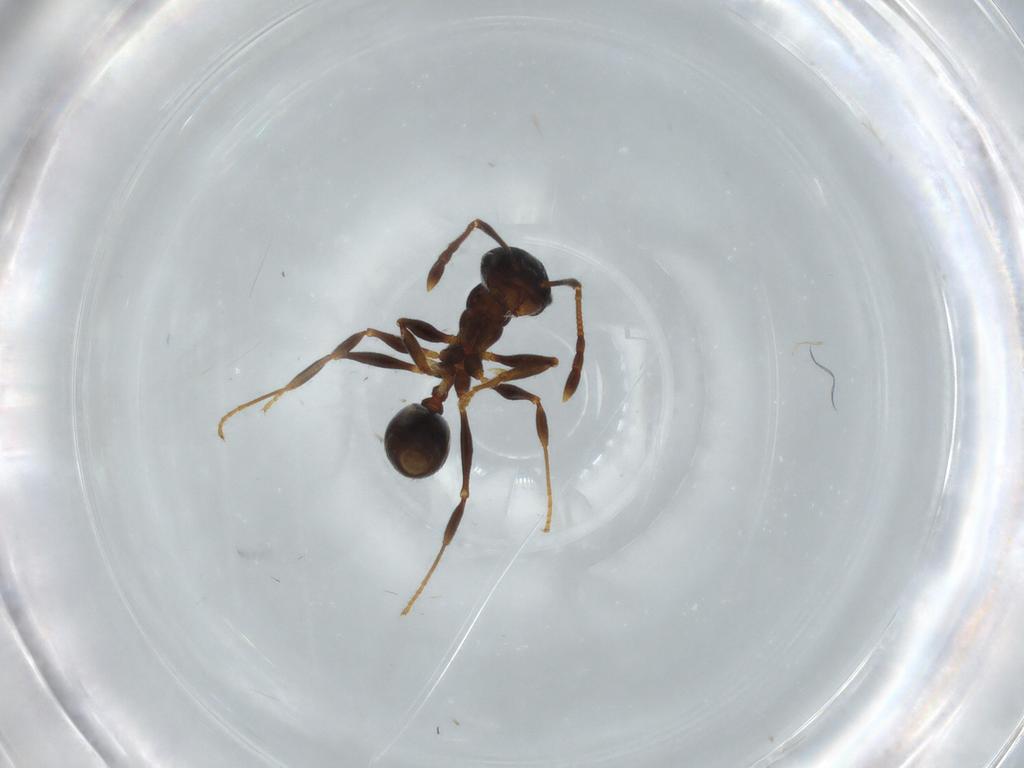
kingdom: Animalia
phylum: Arthropoda
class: Insecta
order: Hymenoptera
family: Formicidae
